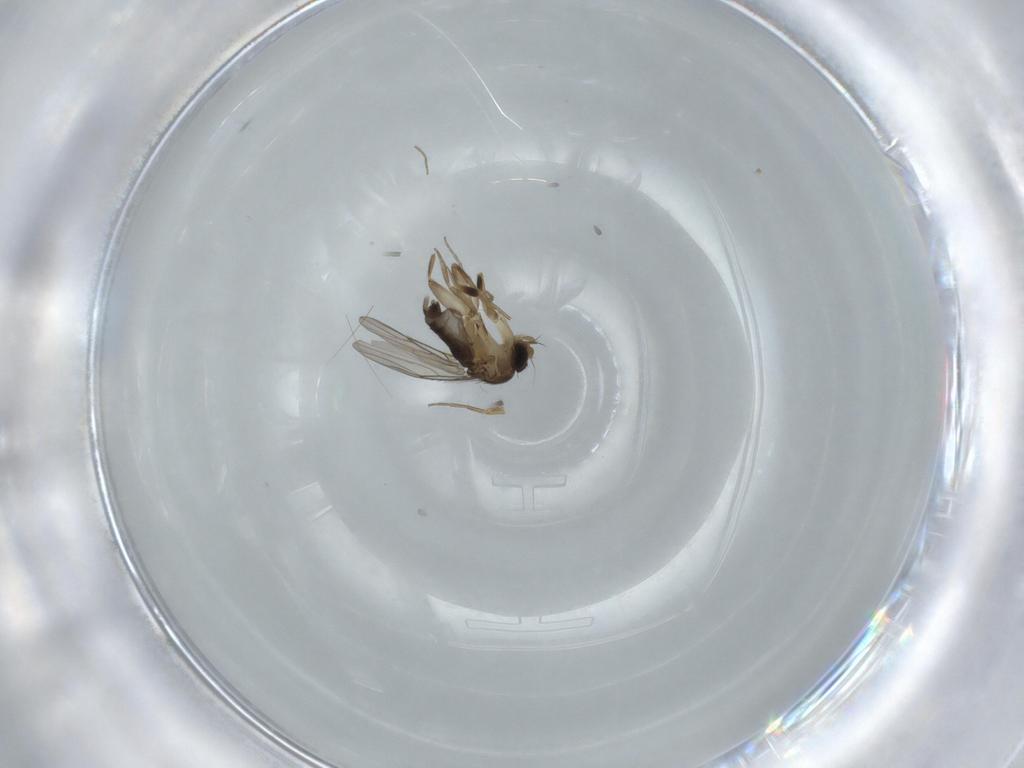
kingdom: Animalia
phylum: Arthropoda
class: Insecta
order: Diptera
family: Phoridae
